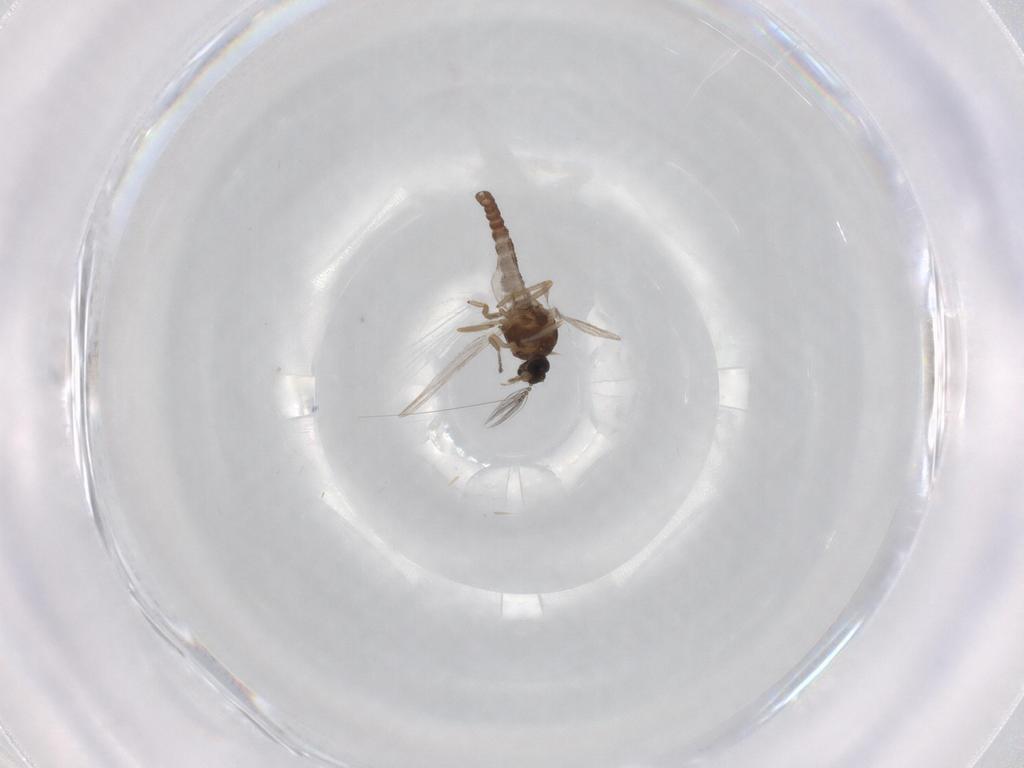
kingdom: Animalia
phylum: Arthropoda
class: Insecta
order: Diptera
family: Ceratopogonidae
